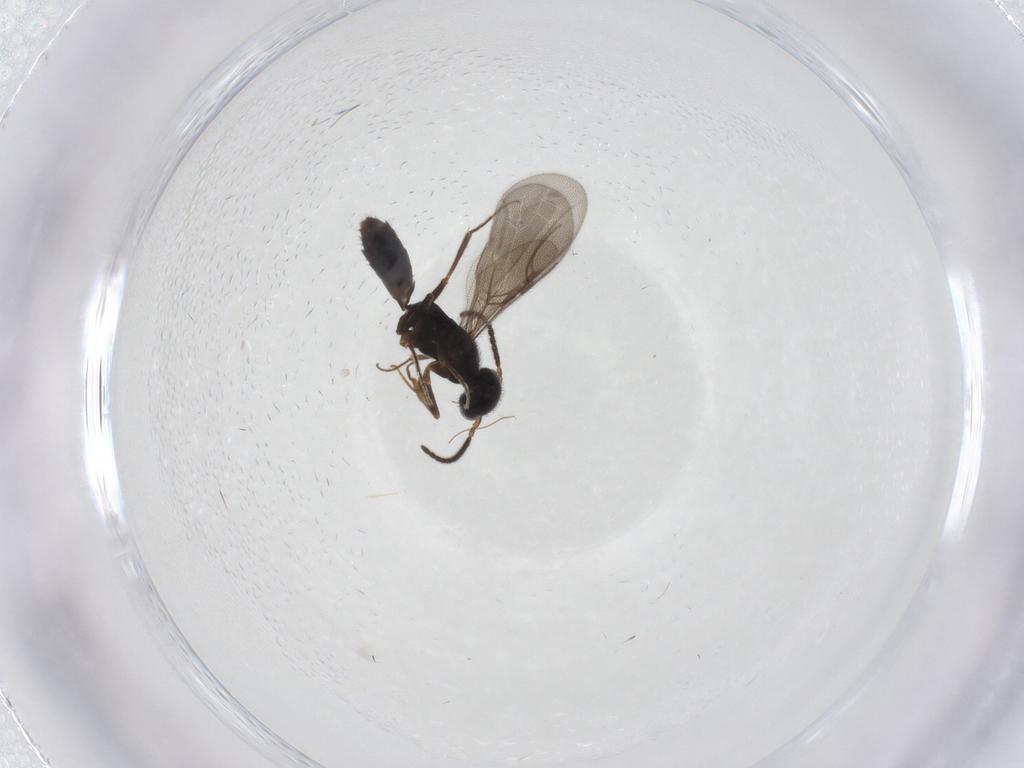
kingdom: Animalia
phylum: Arthropoda
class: Insecta
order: Hymenoptera
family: Bethylidae
